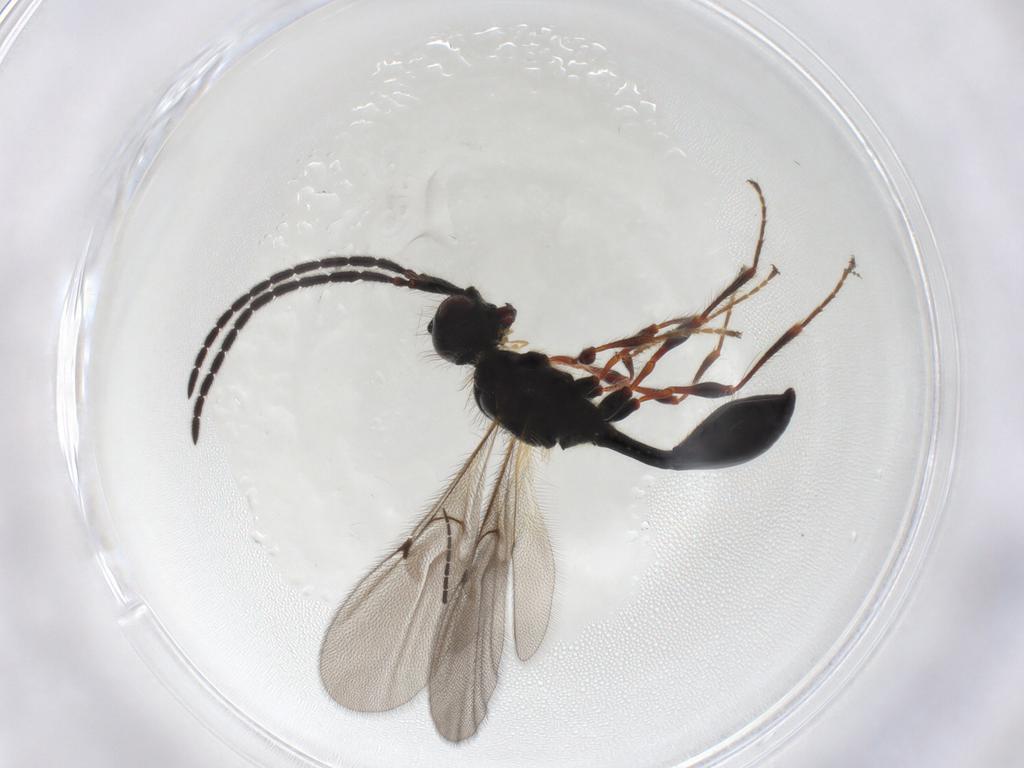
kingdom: Animalia
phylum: Arthropoda
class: Insecta
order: Hymenoptera
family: Diapriidae
